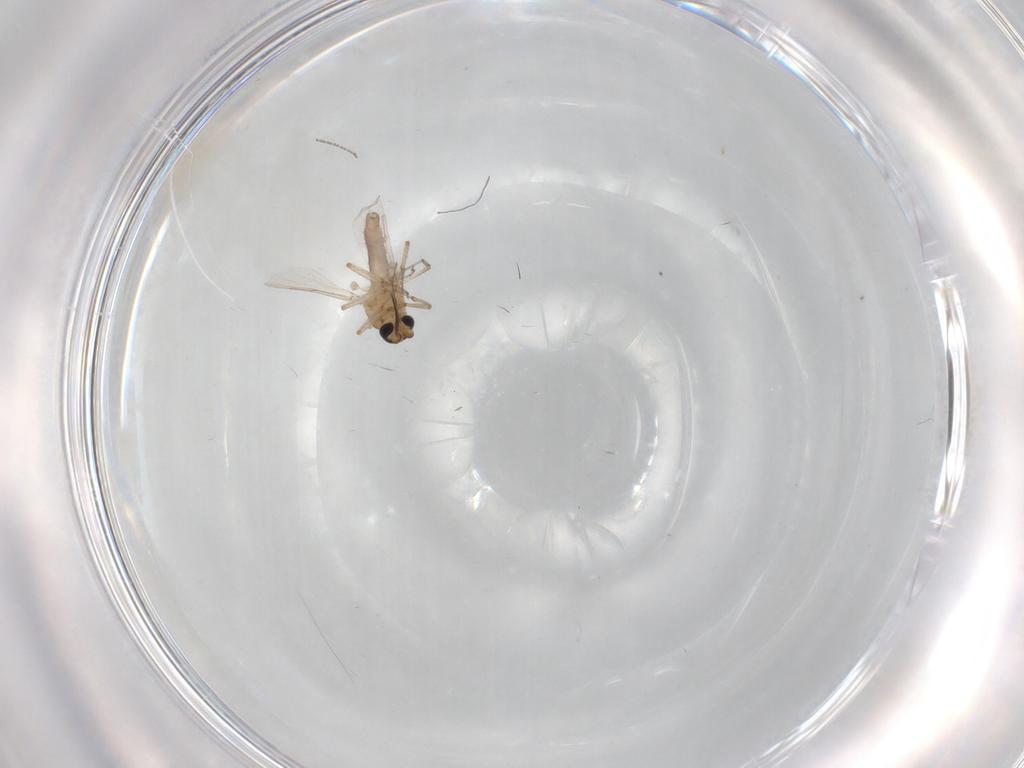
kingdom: Animalia
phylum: Arthropoda
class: Insecta
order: Diptera
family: Cecidomyiidae
